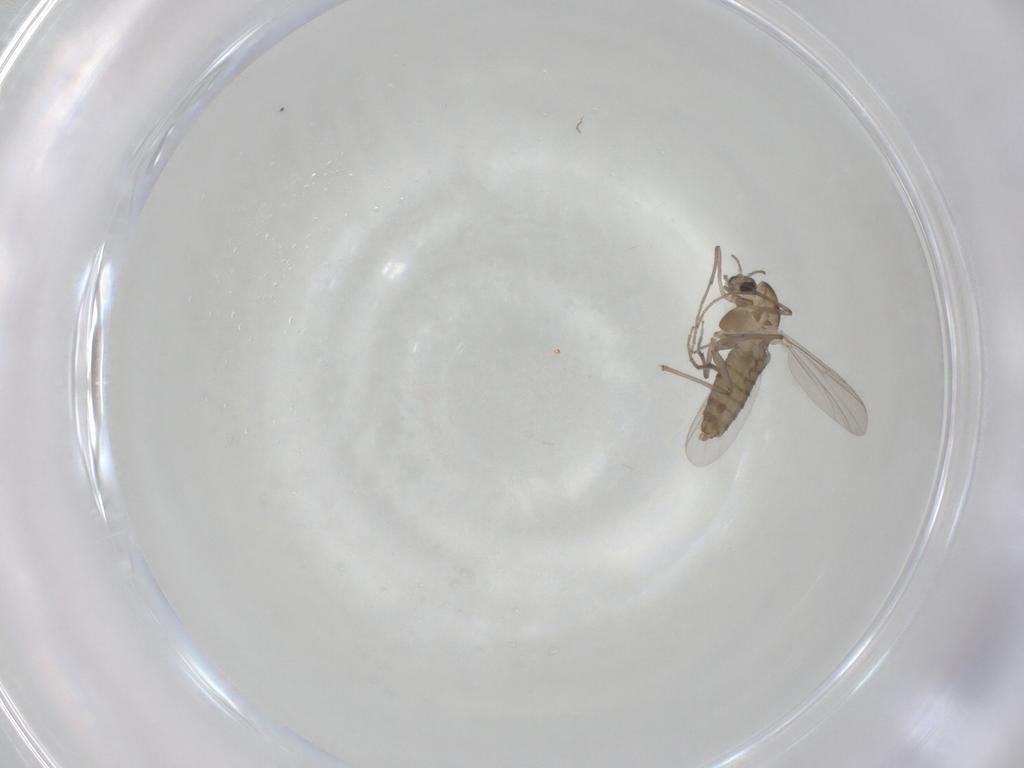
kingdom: Animalia
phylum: Arthropoda
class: Insecta
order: Diptera
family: Chironomidae
